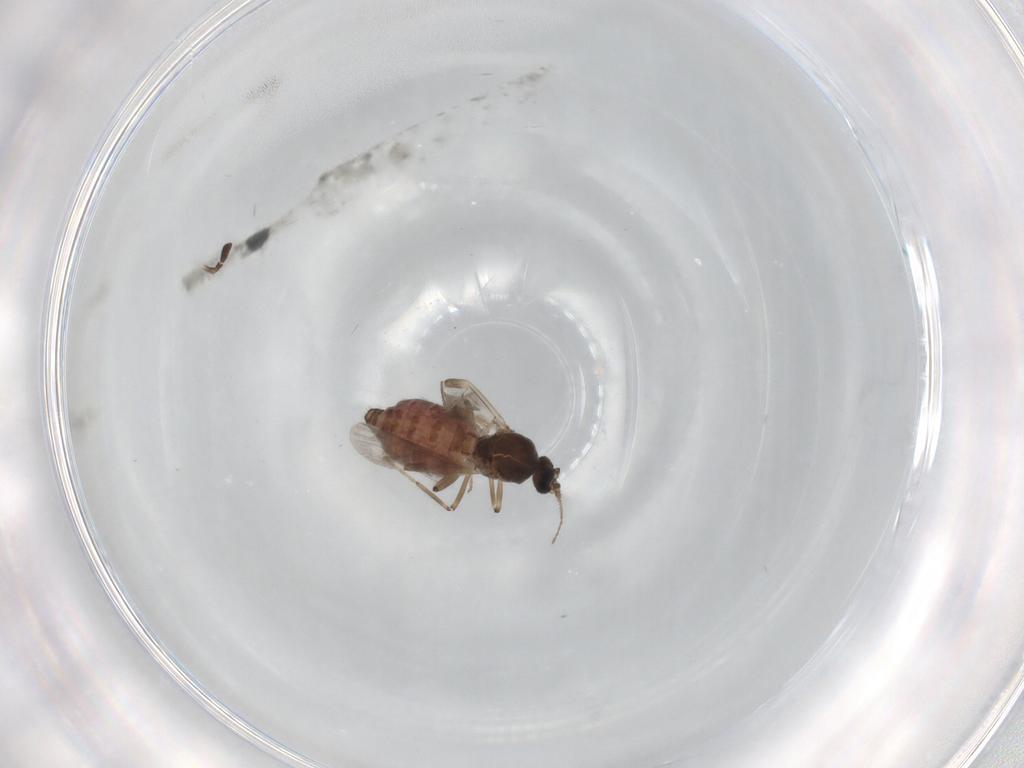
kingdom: Animalia
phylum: Arthropoda
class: Insecta
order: Diptera
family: Ceratopogonidae
